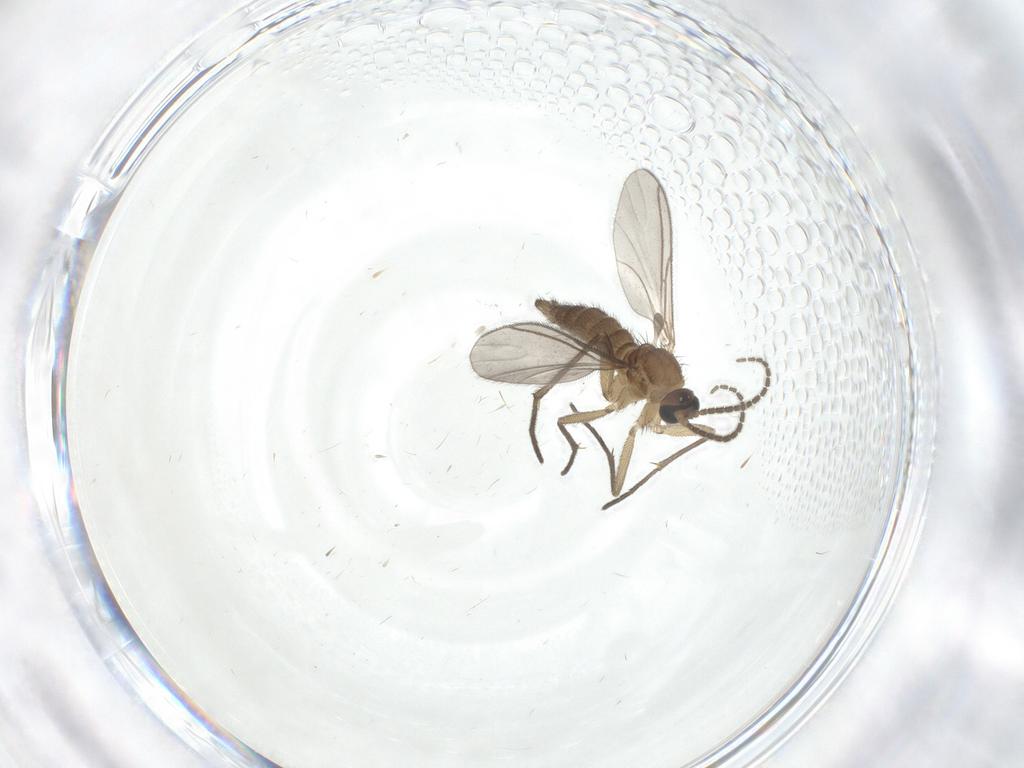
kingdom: Animalia
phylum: Arthropoda
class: Insecta
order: Diptera
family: Sciaridae
